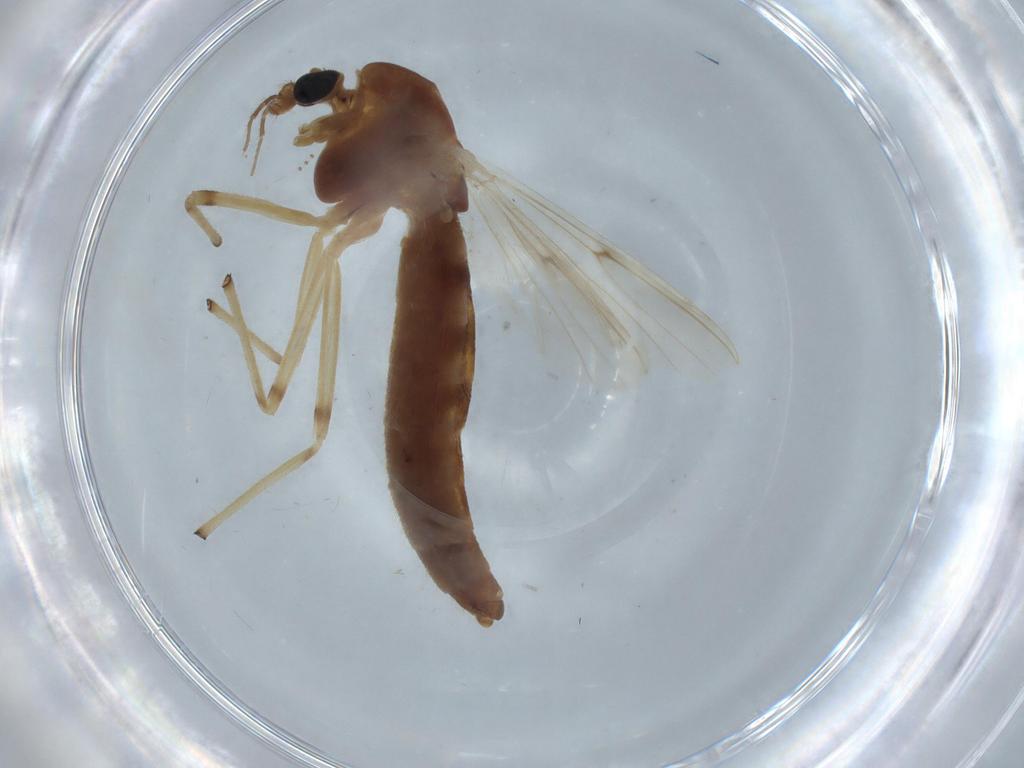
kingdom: Animalia
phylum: Arthropoda
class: Insecta
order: Diptera
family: Chironomidae
